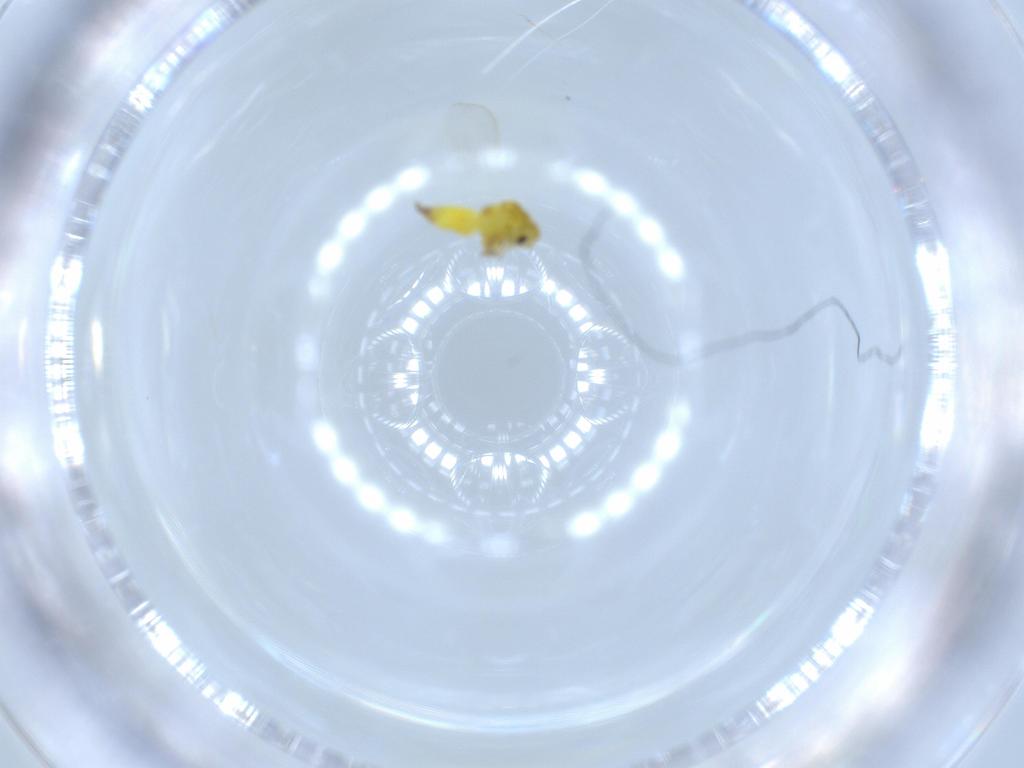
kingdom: Animalia
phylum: Arthropoda
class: Insecta
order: Hemiptera
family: Aleyrodidae
